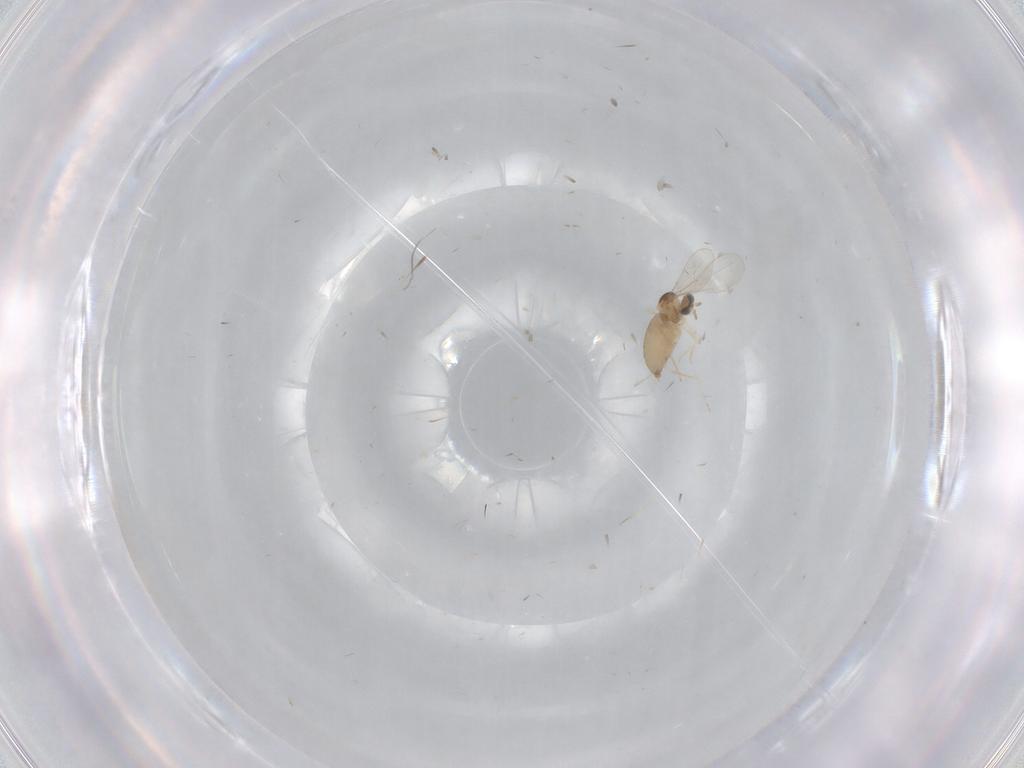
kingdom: Animalia
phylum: Arthropoda
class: Insecta
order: Diptera
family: Sciaridae
